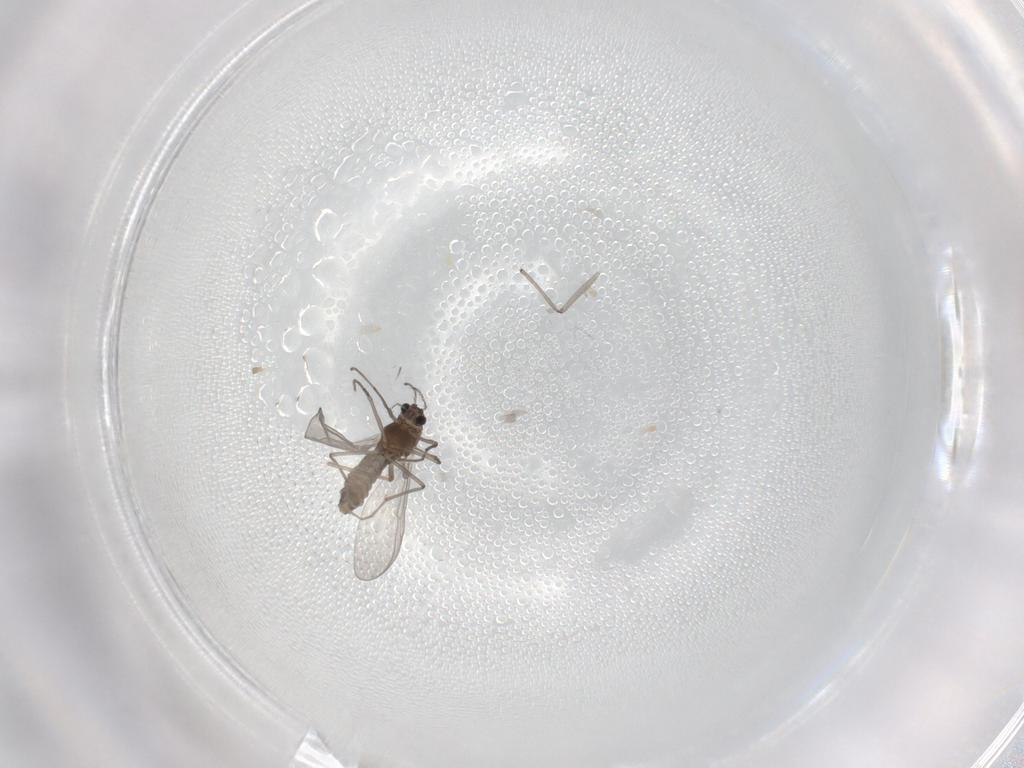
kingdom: Animalia
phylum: Arthropoda
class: Insecta
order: Diptera
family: Chironomidae
